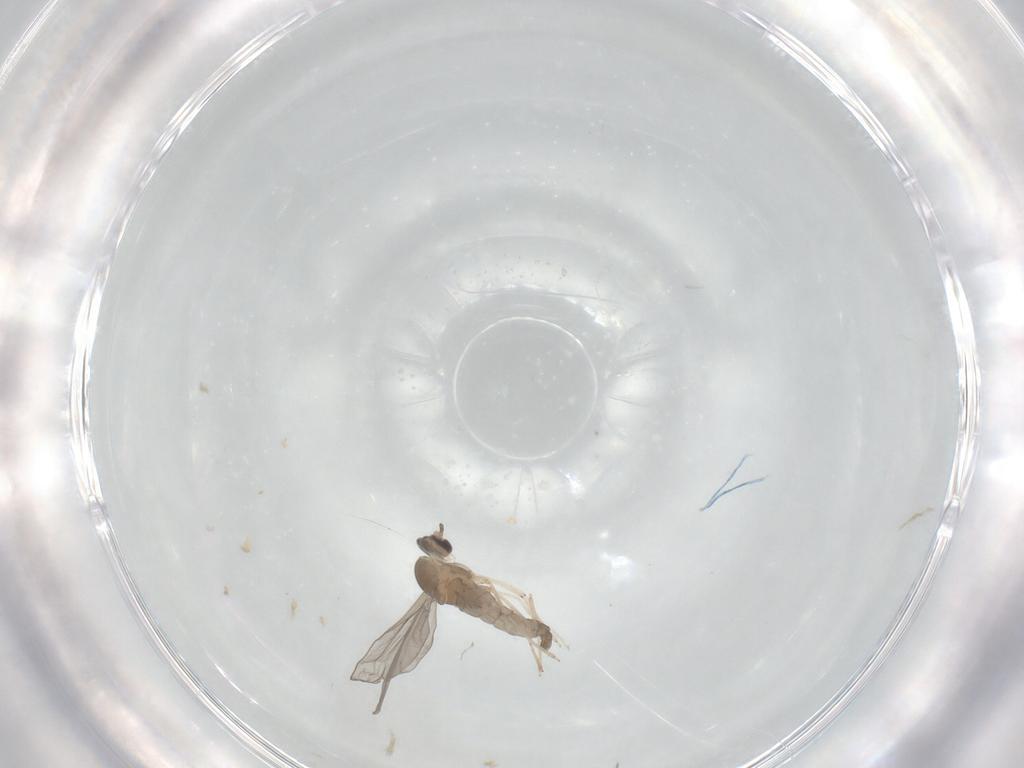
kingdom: Animalia
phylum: Arthropoda
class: Insecta
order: Diptera
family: Cecidomyiidae
